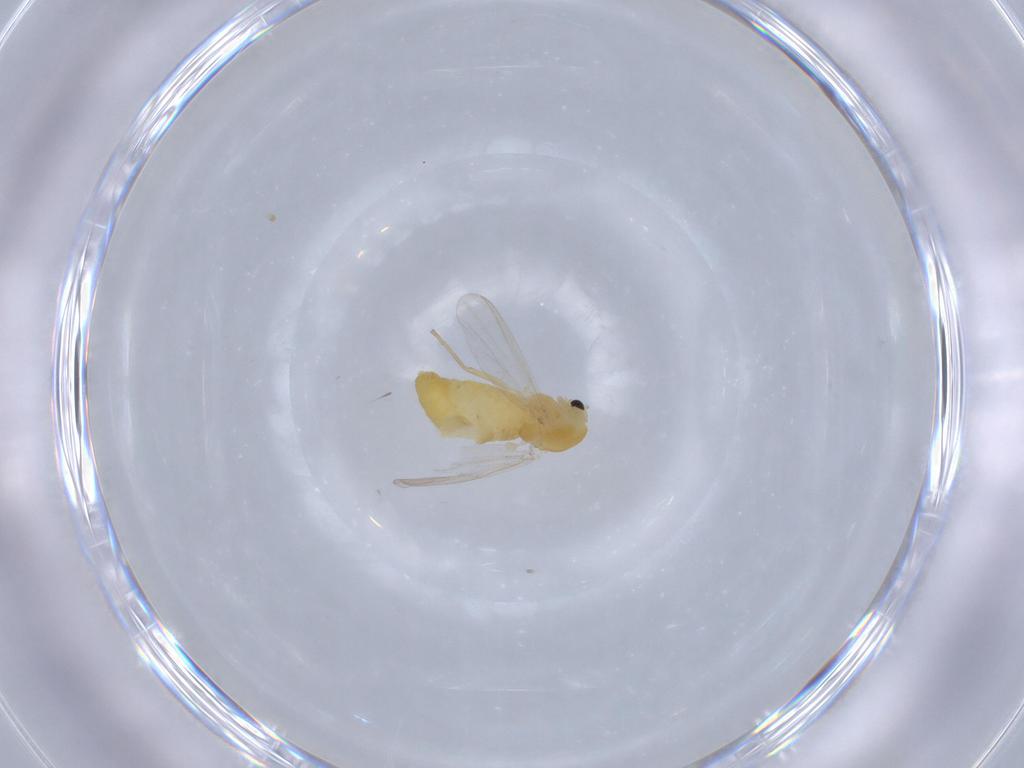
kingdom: Animalia
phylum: Arthropoda
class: Insecta
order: Diptera
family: Chironomidae
